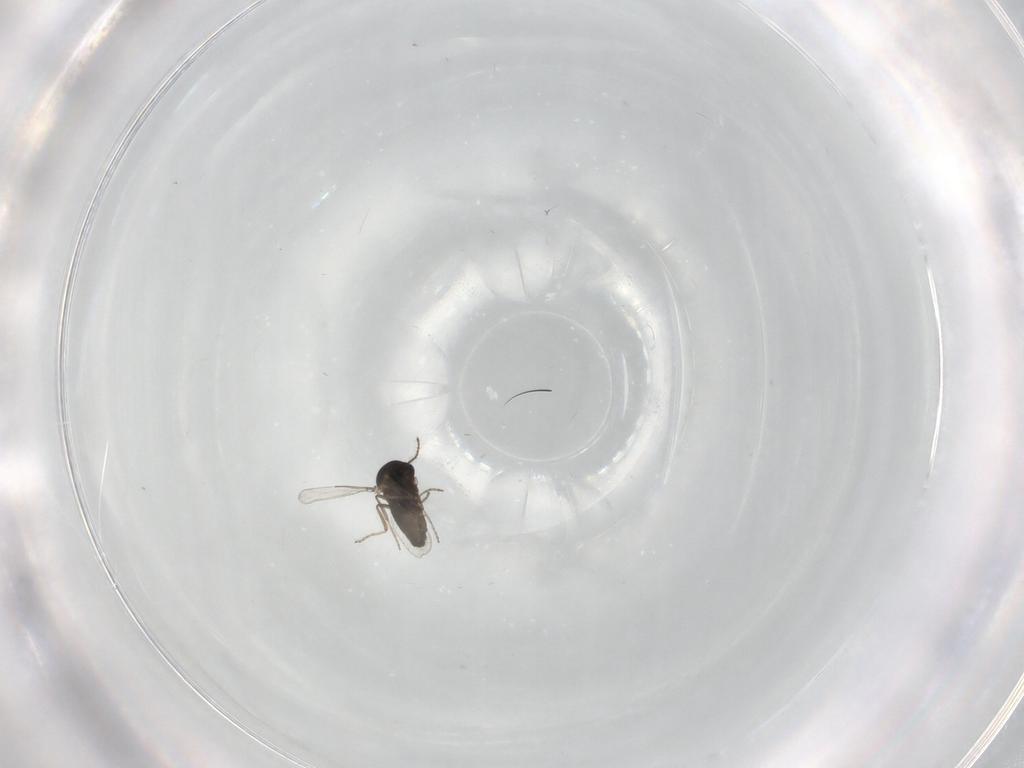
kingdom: Animalia
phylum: Arthropoda
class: Insecta
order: Diptera
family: Ceratopogonidae
